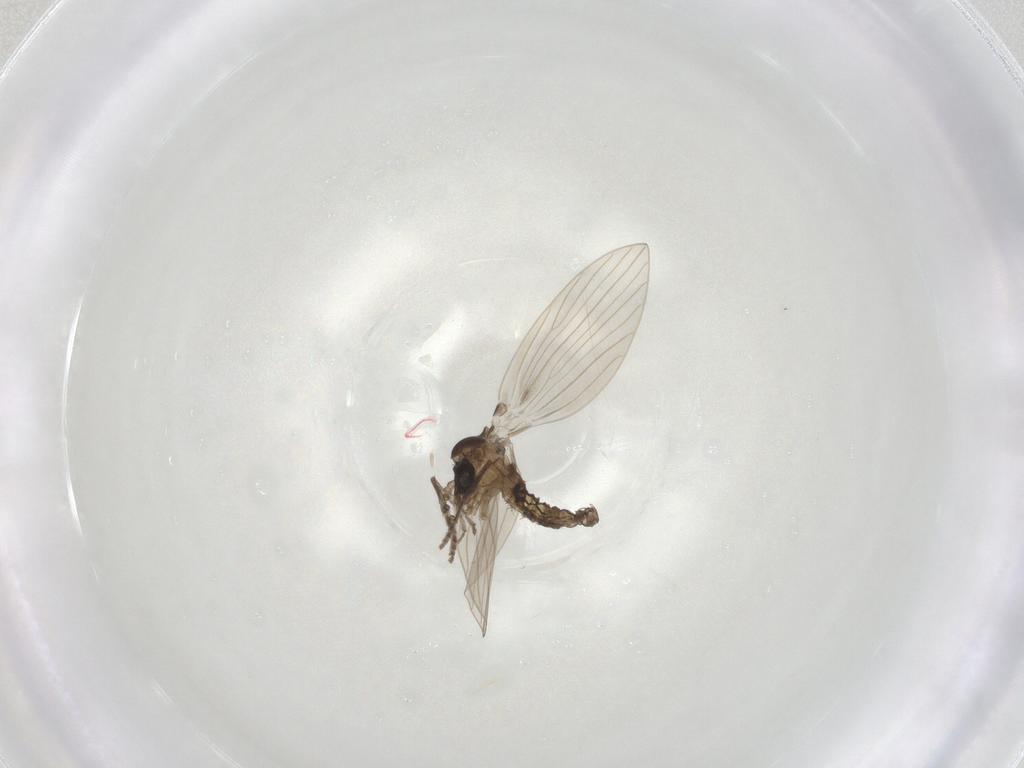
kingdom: Animalia
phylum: Arthropoda
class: Insecta
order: Diptera
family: Psychodidae
